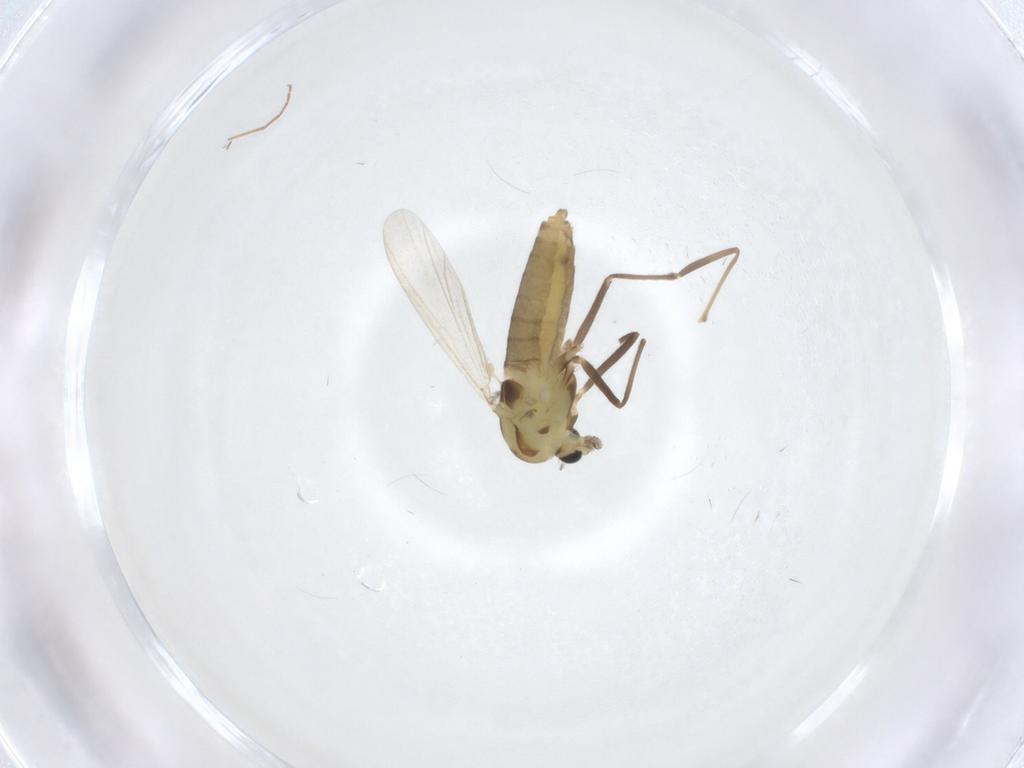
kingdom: Animalia
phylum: Arthropoda
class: Insecta
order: Diptera
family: Chironomidae
